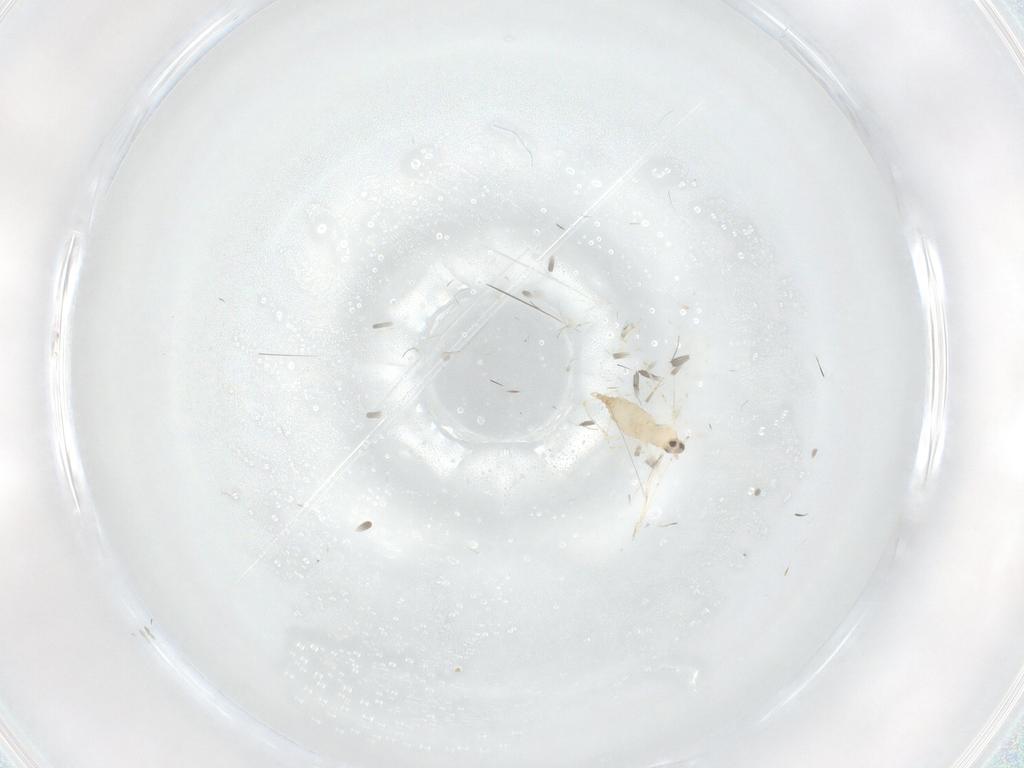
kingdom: Animalia
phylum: Arthropoda
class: Insecta
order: Diptera
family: Cecidomyiidae
